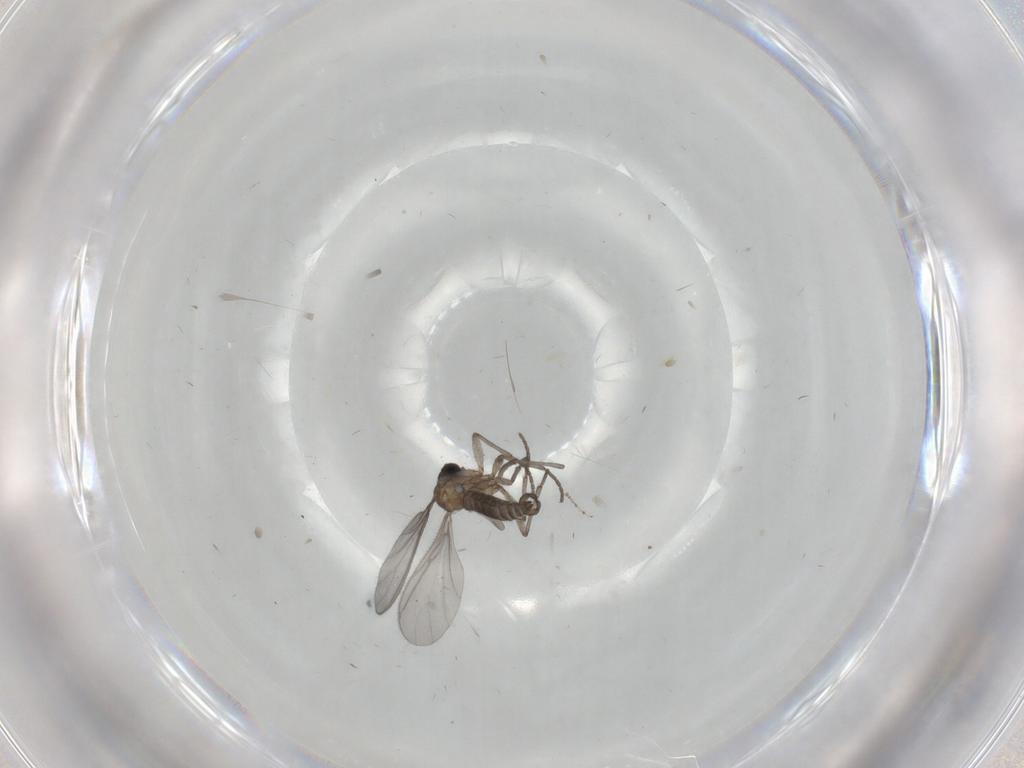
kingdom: Animalia
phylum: Arthropoda
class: Insecta
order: Diptera
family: Sciaridae
